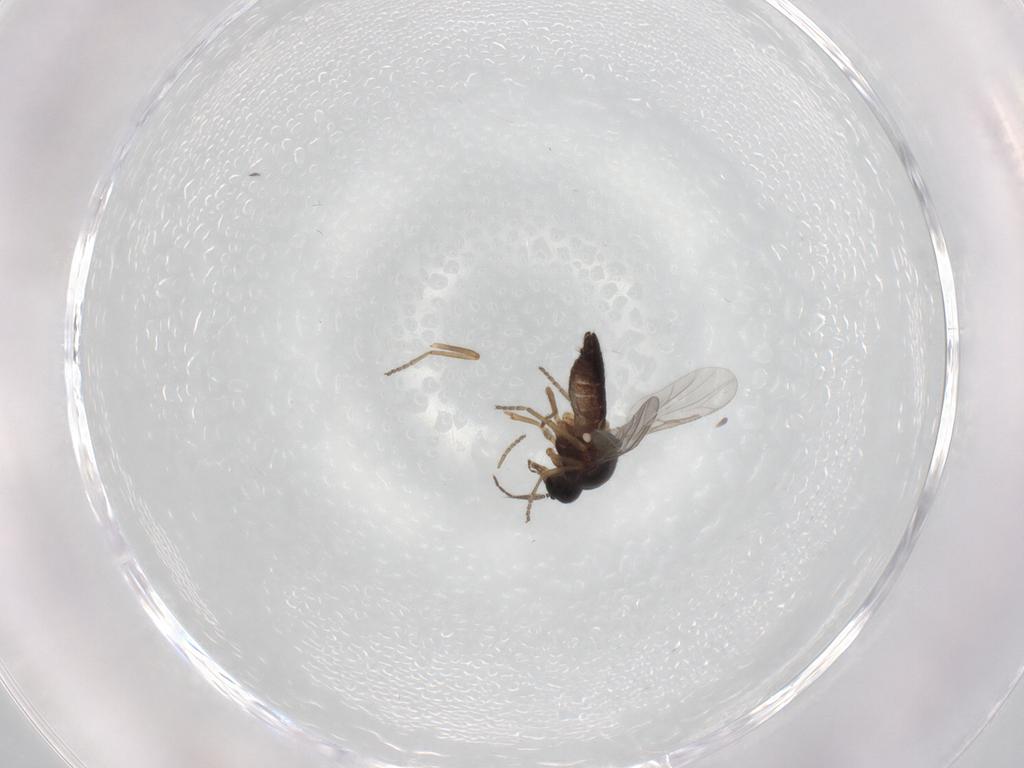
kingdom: Animalia
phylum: Arthropoda
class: Insecta
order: Diptera
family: Ceratopogonidae
